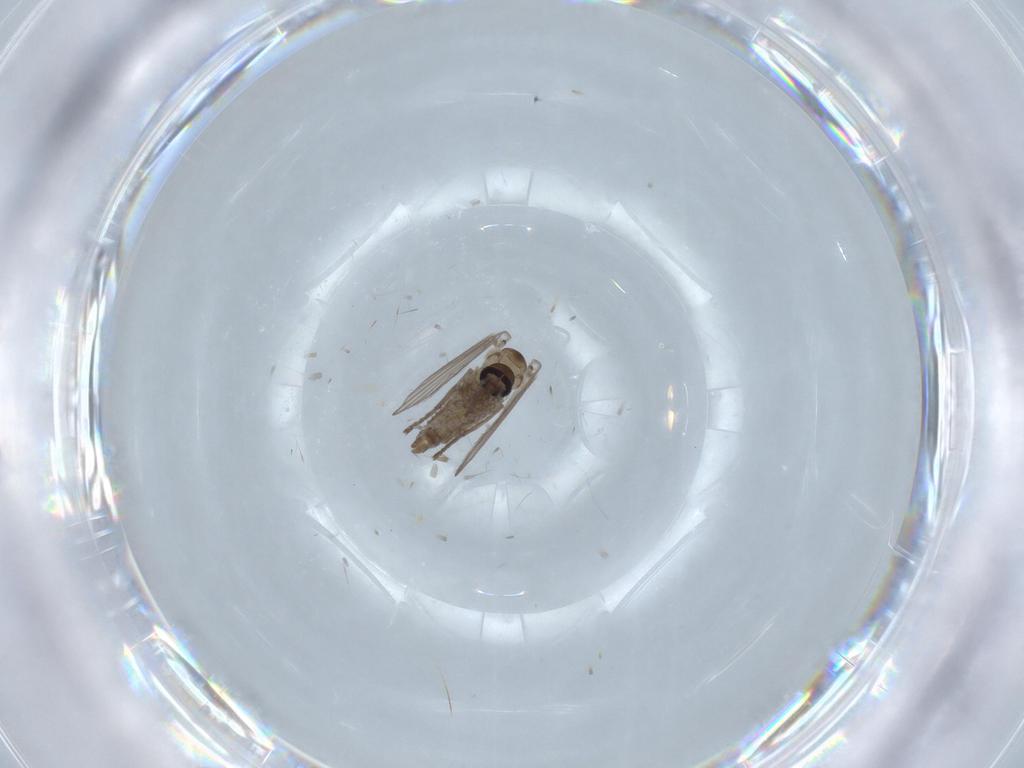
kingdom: Animalia
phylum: Arthropoda
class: Insecta
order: Diptera
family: Psychodidae
